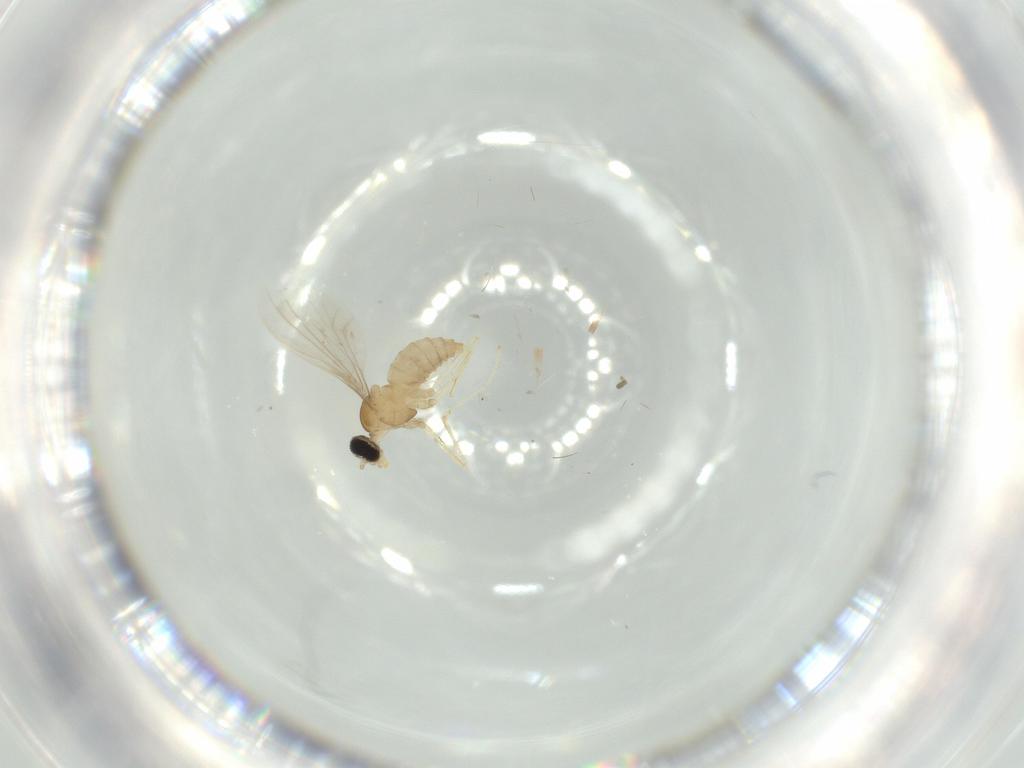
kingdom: Animalia
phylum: Arthropoda
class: Insecta
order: Diptera
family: Cecidomyiidae
